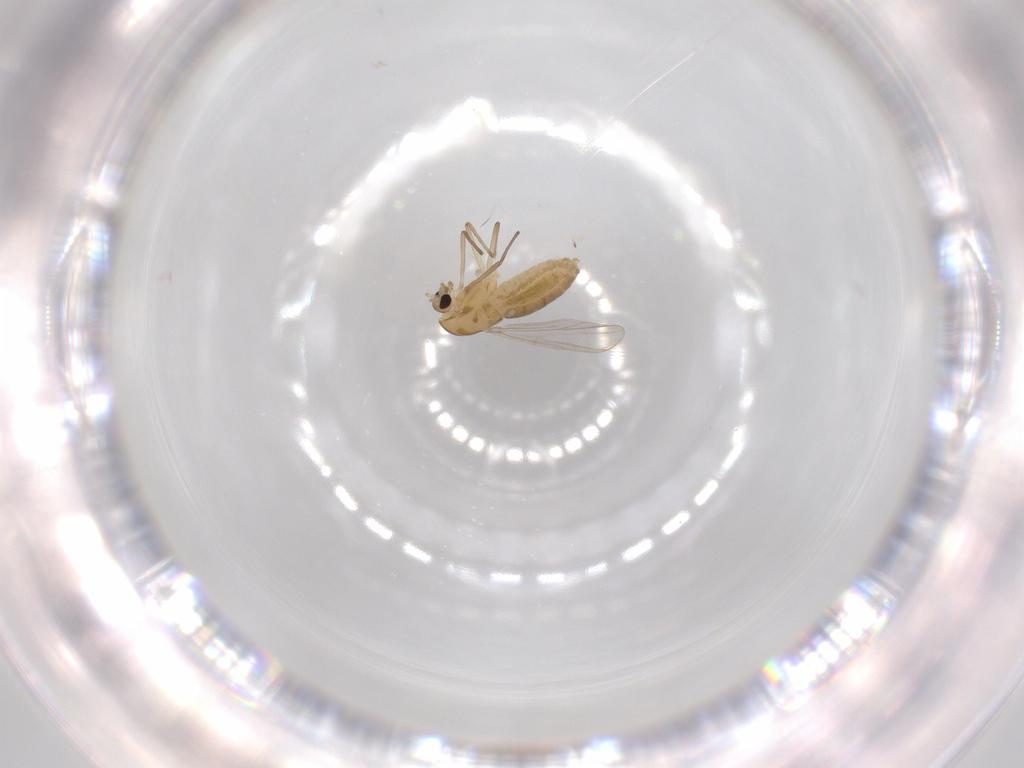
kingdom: Animalia
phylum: Arthropoda
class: Insecta
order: Diptera
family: Chironomidae
